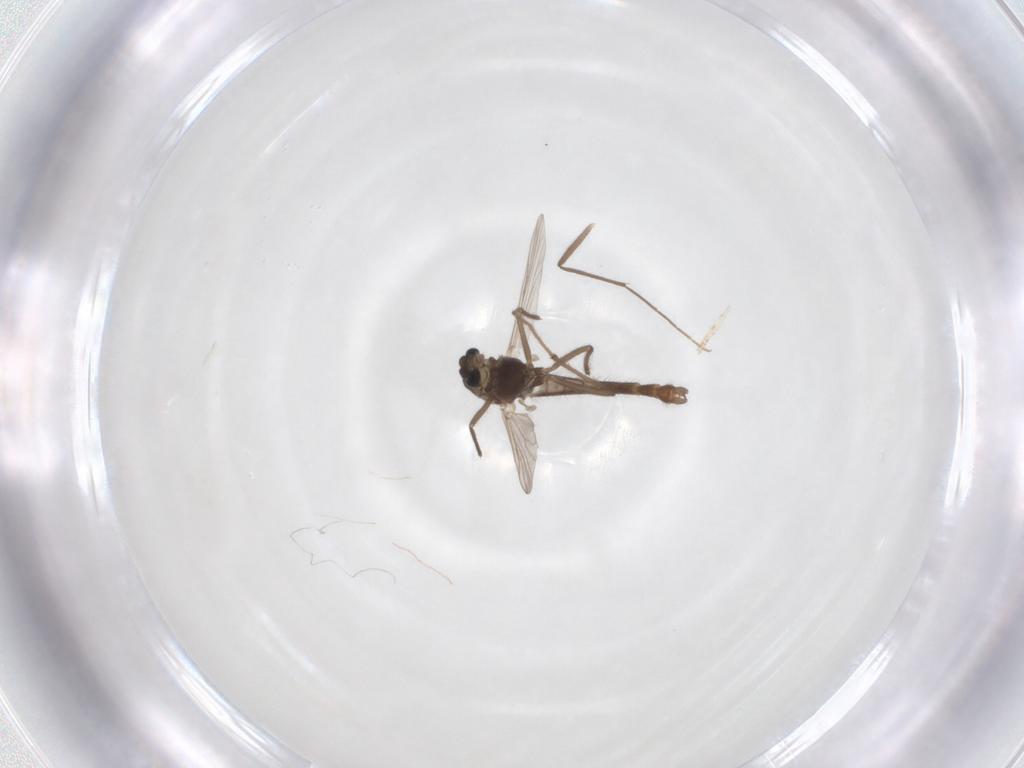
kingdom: Animalia
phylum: Arthropoda
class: Insecta
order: Diptera
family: Chironomidae
